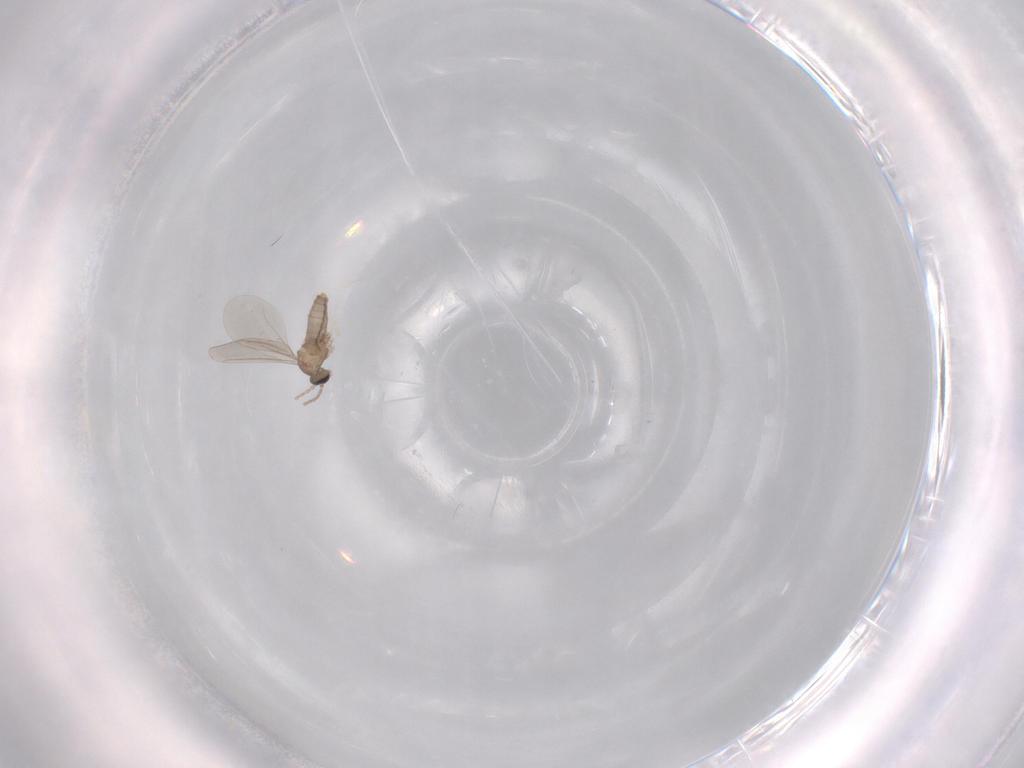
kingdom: Animalia
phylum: Arthropoda
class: Insecta
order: Diptera
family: Cecidomyiidae
